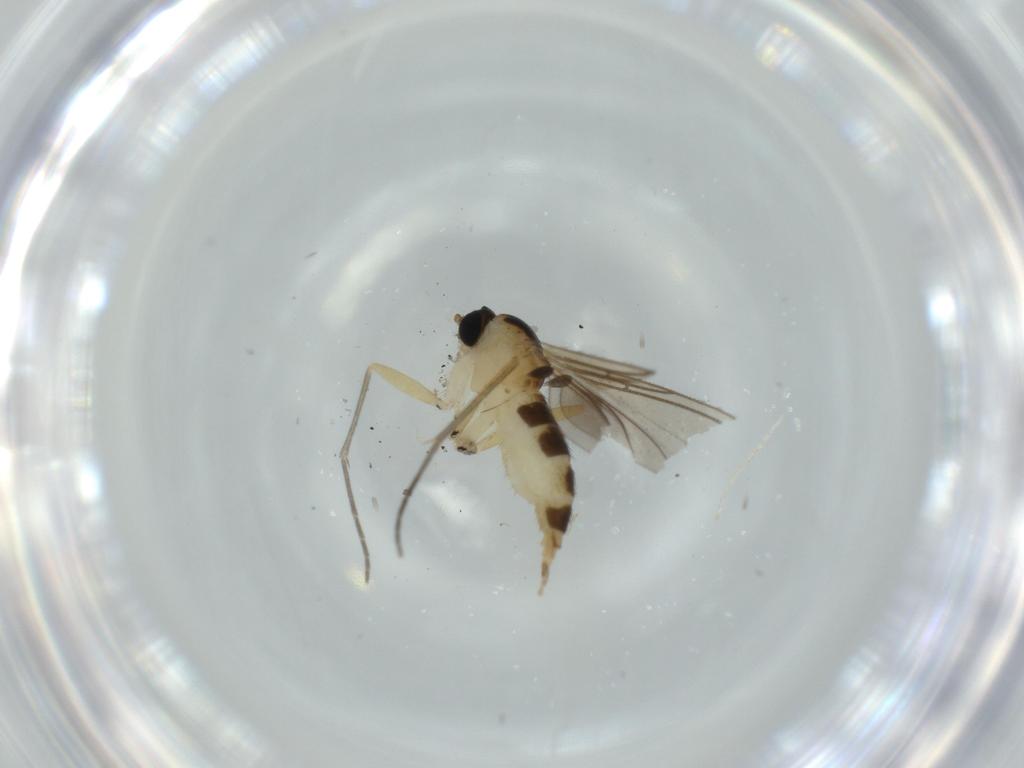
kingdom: Animalia
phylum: Arthropoda
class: Insecta
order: Diptera
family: Sciaridae
